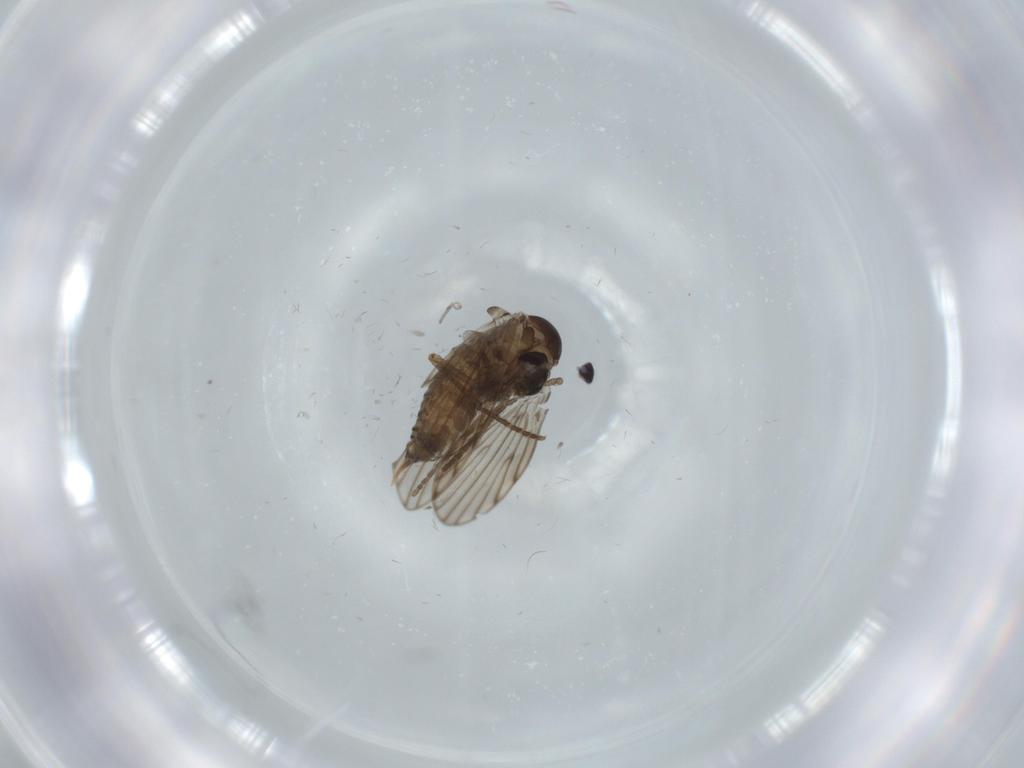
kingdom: Animalia
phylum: Arthropoda
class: Insecta
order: Diptera
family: Psychodidae
